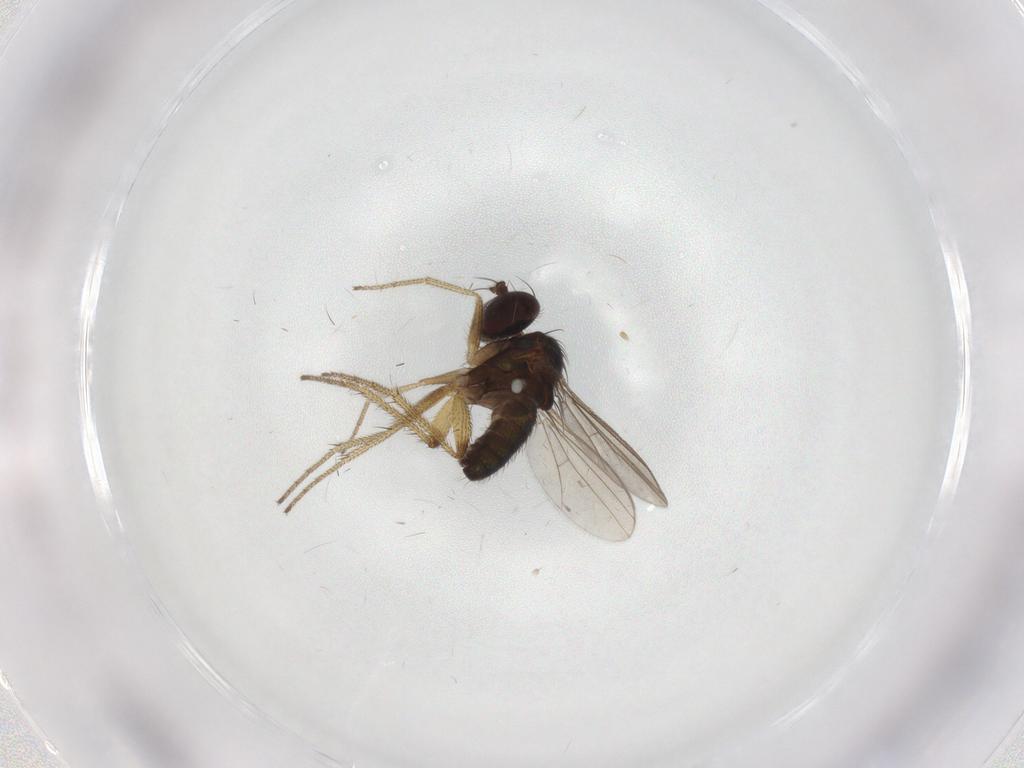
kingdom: Animalia
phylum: Arthropoda
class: Insecta
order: Diptera
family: Dolichopodidae
